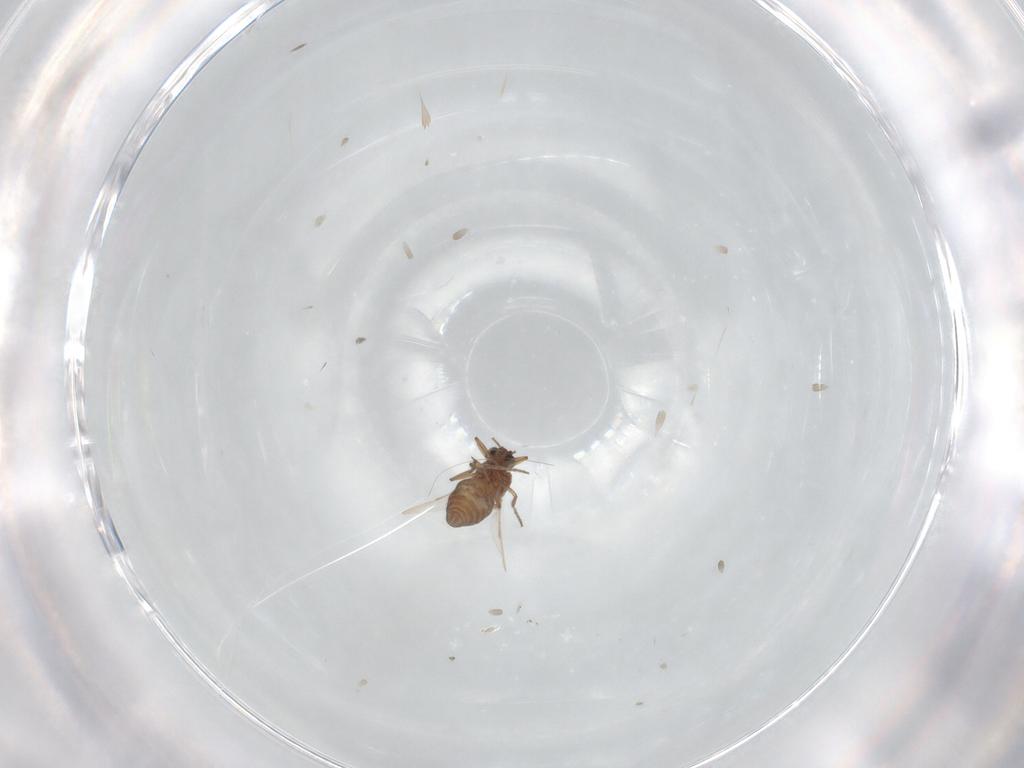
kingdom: Animalia
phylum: Arthropoda
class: Insecta
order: Diptera
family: Ceratopogonidae
